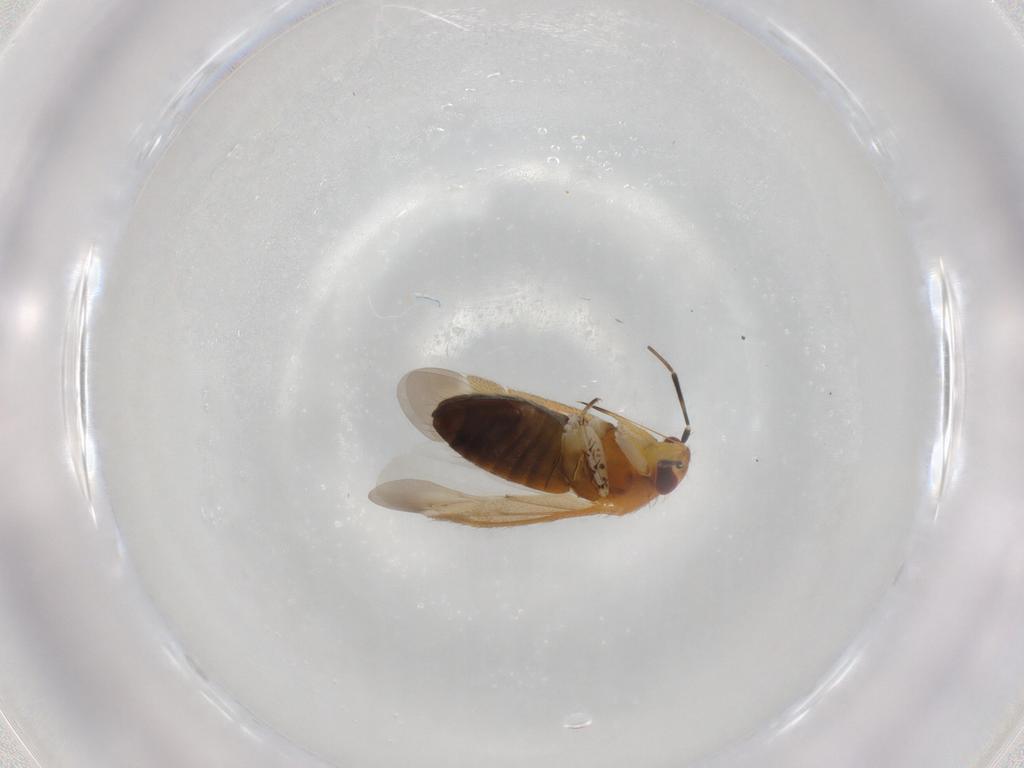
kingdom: Animalia
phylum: Arthropoda
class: Insecta
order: Hemiptera
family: Miridae
